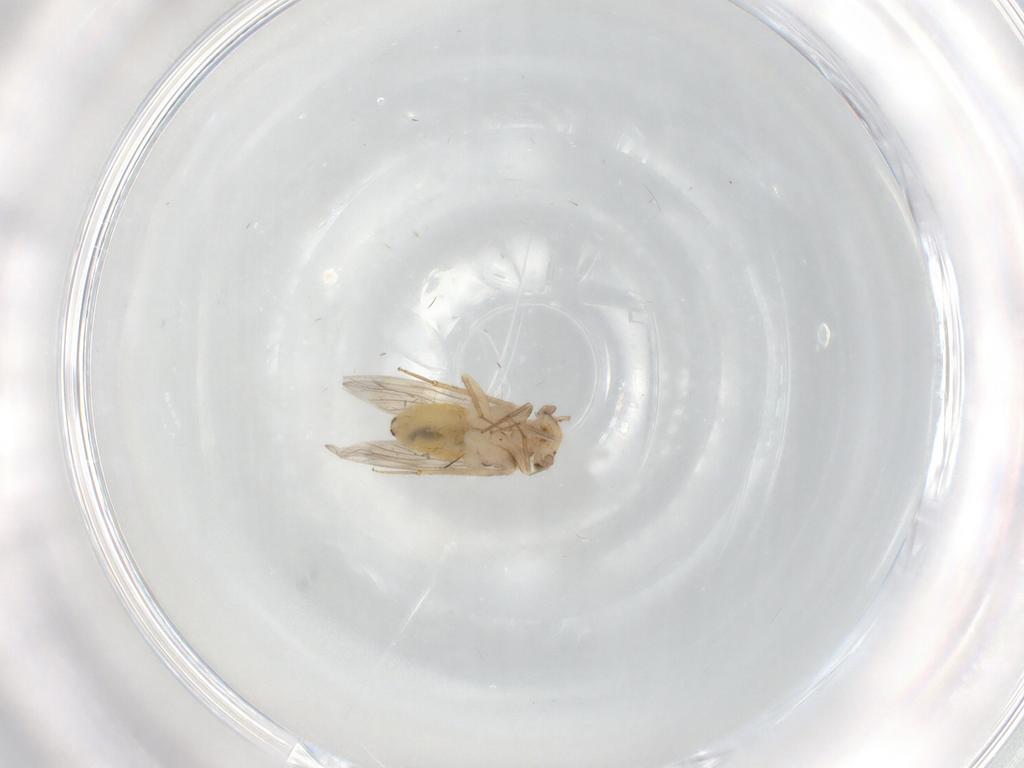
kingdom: Animalia
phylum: Arthropoda
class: Insecta
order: Psocodea
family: Lepidopsocidae
